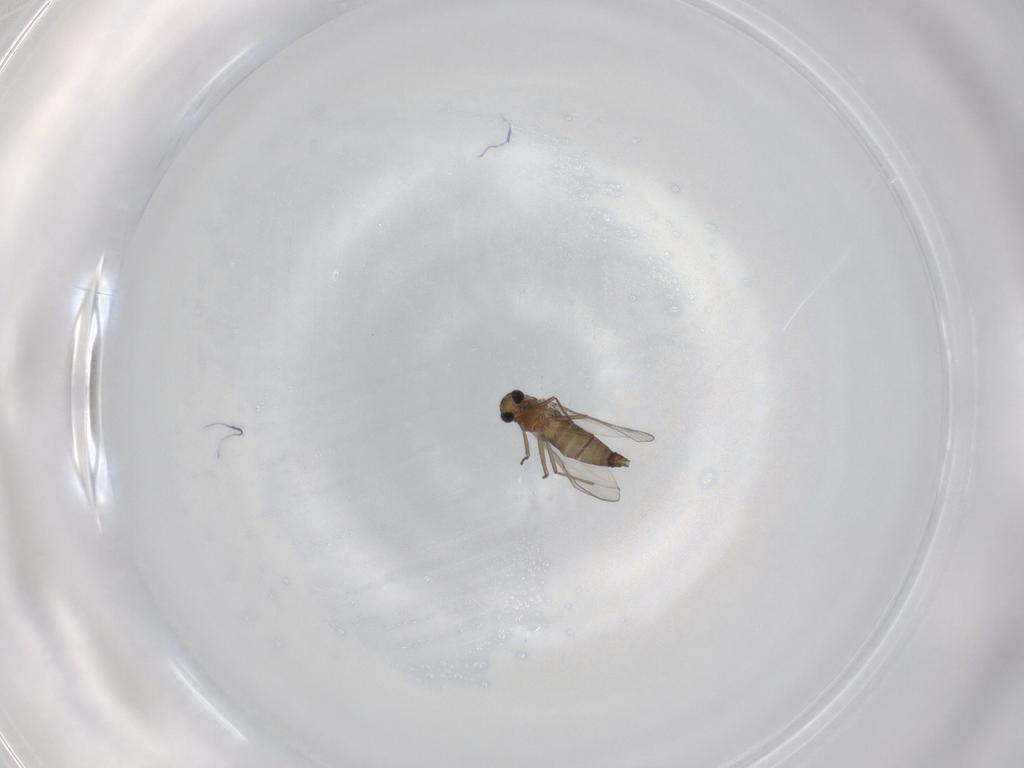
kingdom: Animalia
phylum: Arthropoda
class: Insecta
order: Diptera
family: Chironomidae
